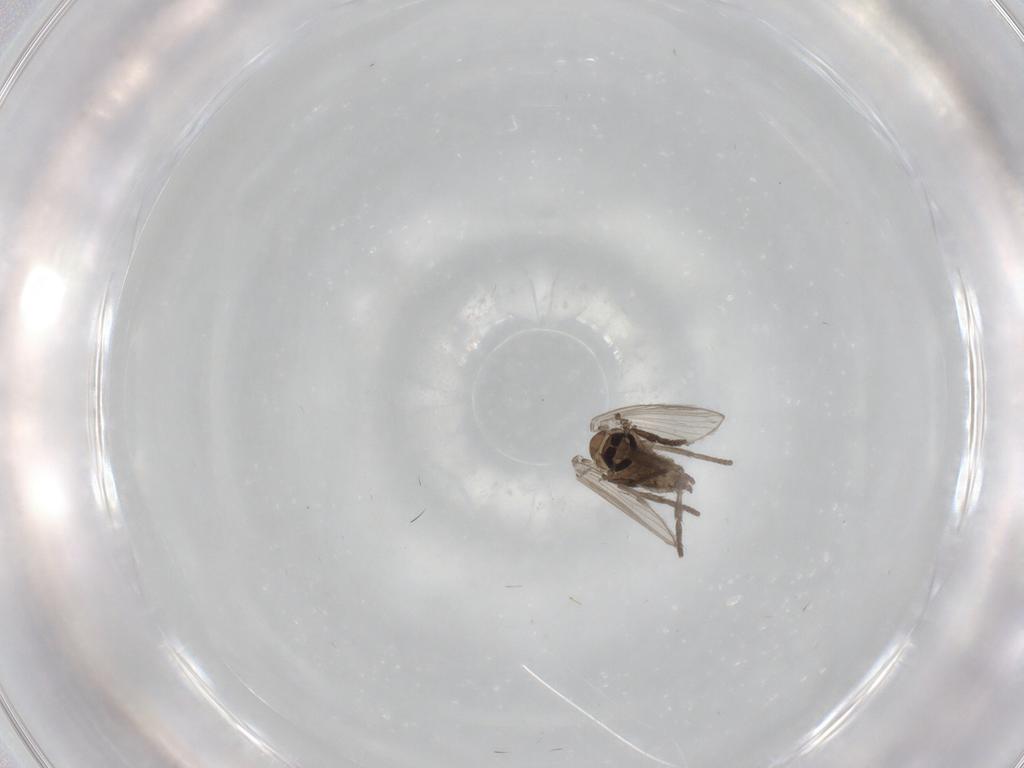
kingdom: Animalia
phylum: Arthropoda
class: Insecta
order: Diptera
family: Psychodidae
